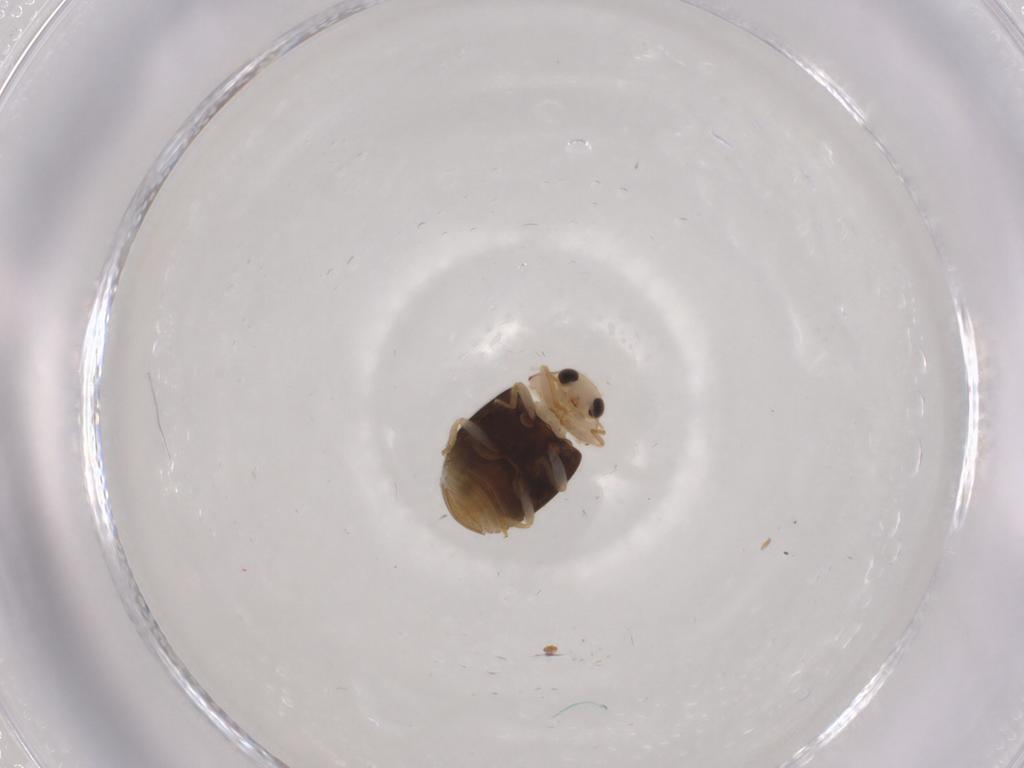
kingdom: Animalia
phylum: Arthropoda
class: Insecta
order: Coleoptera
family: Coccinellidae
